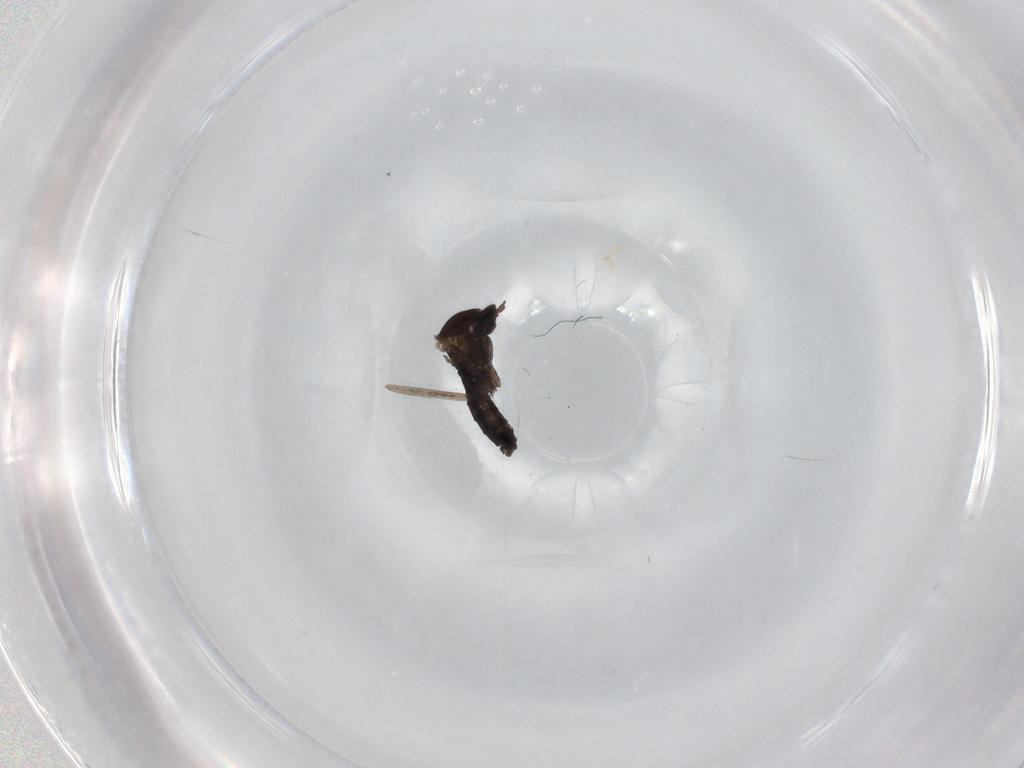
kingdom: Animalia
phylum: Arthropoda
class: Insecta
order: Diptera
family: Cecidomyiidae
